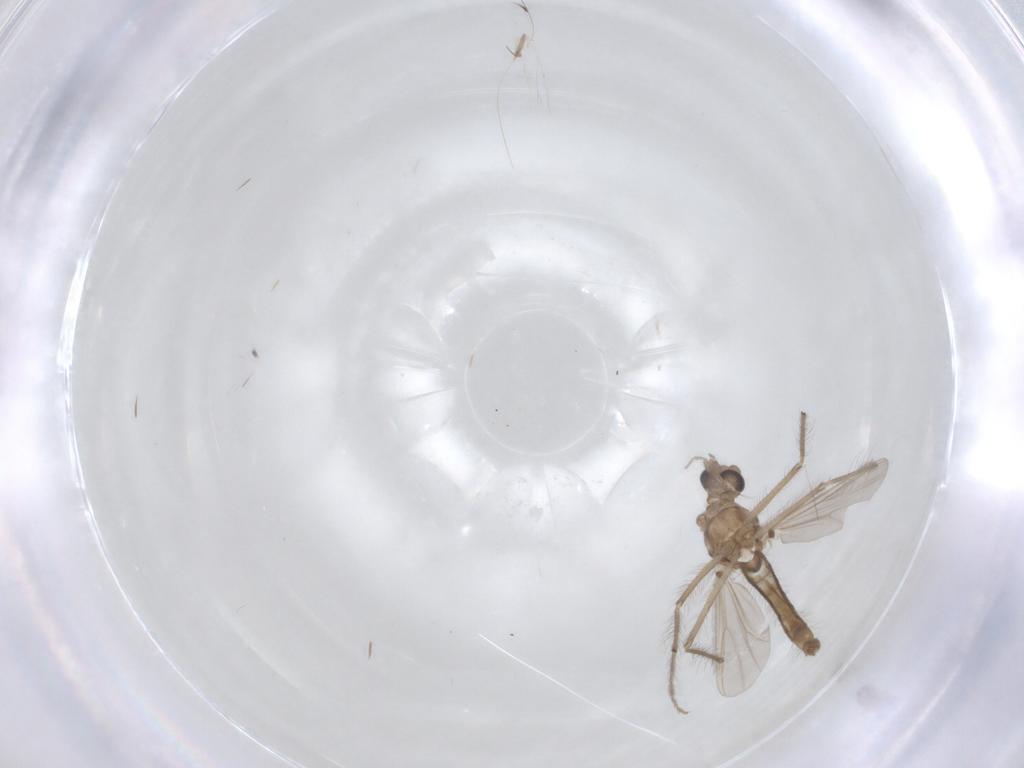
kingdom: Animalia
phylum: Arthropoda
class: Insecta
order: Diptera
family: Chironomidae
